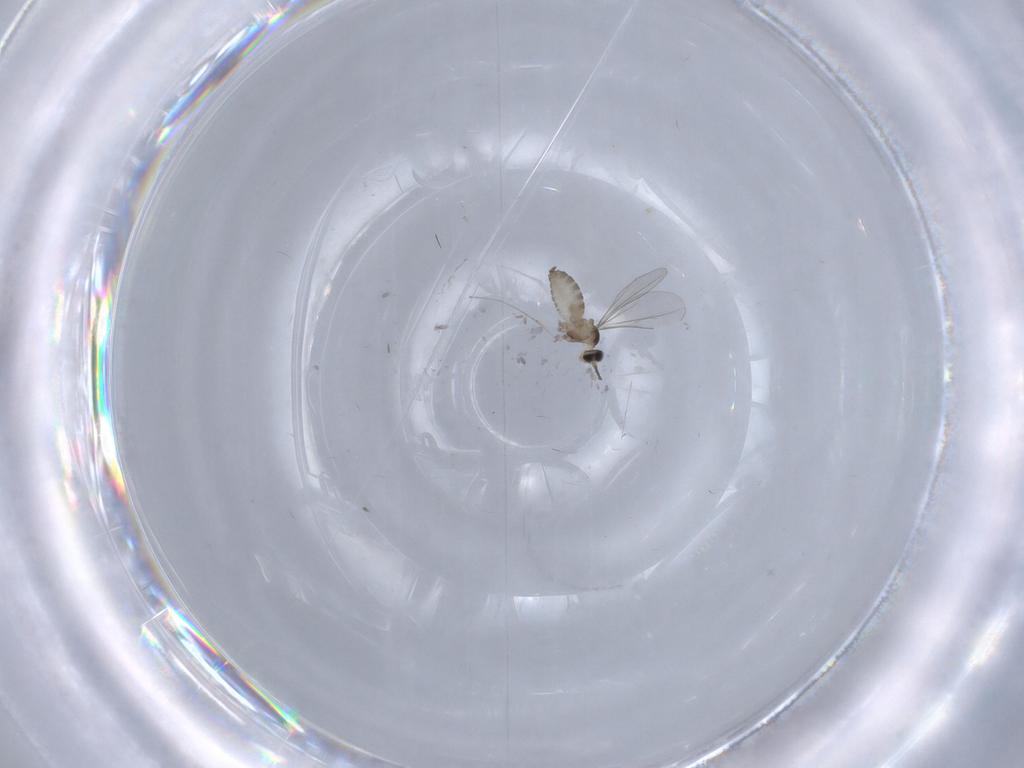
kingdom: Animalia
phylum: Arthropoda
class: Insecta
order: Diptera
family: Cecidomyiidae
